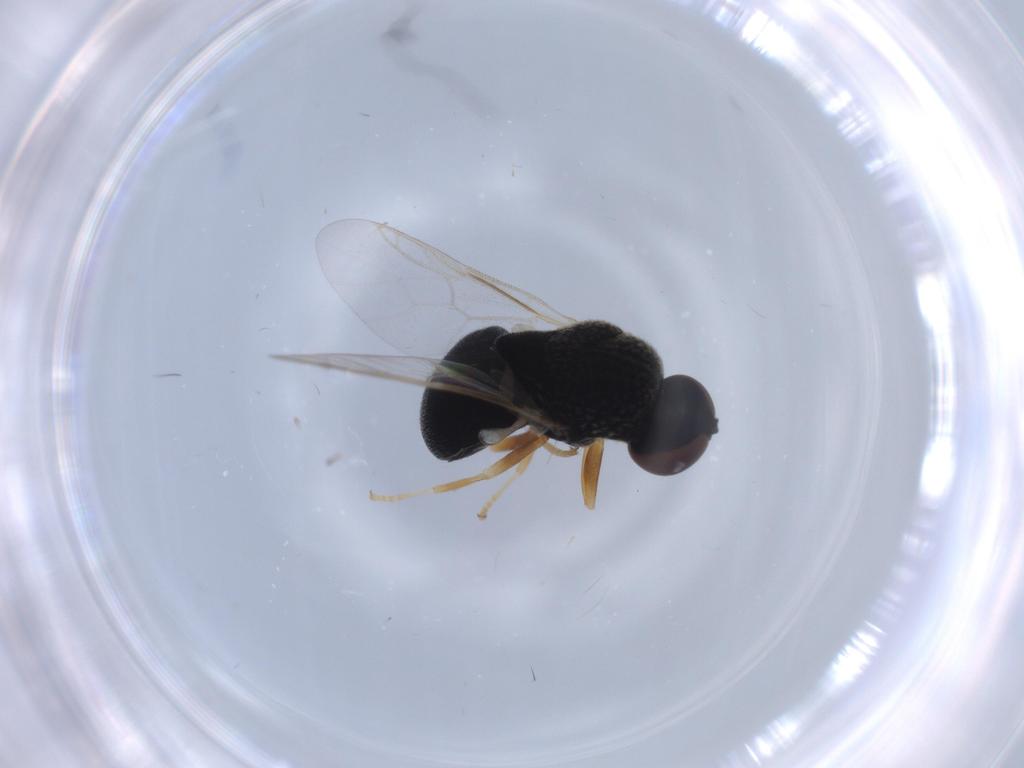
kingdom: Animalia
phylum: Arthropoda
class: Insecta
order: Diptera
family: Stratiomyidae
